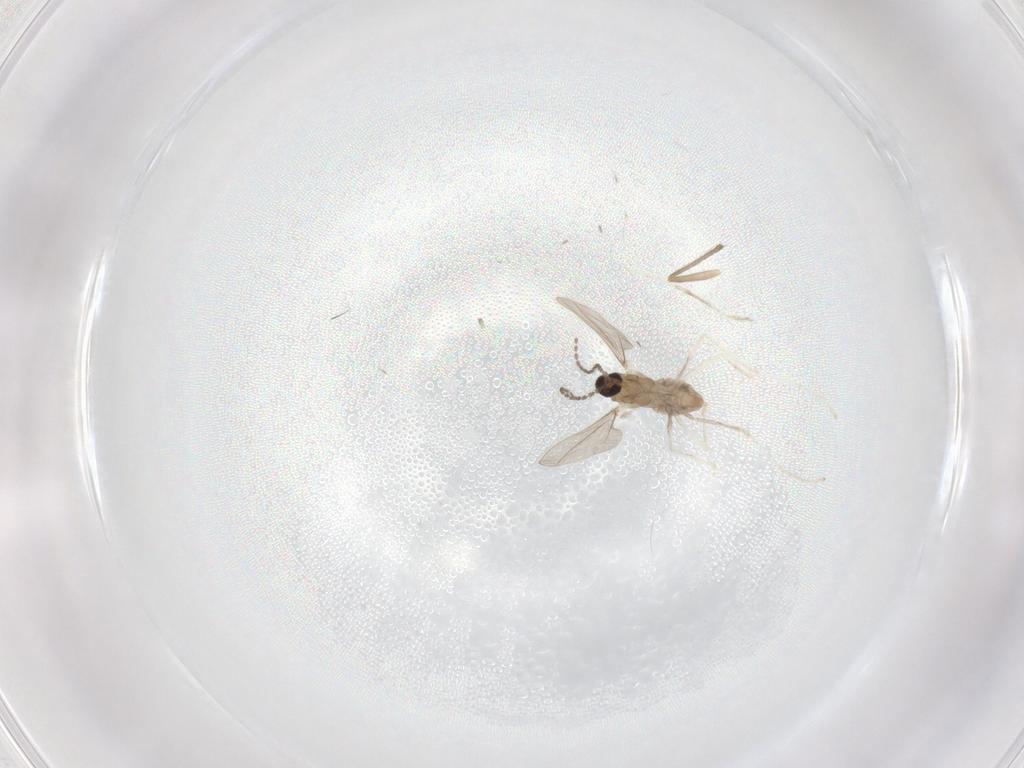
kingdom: Animalia
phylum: Arthropoda
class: Insecta
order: Diptera
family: Cecidomyiidae
